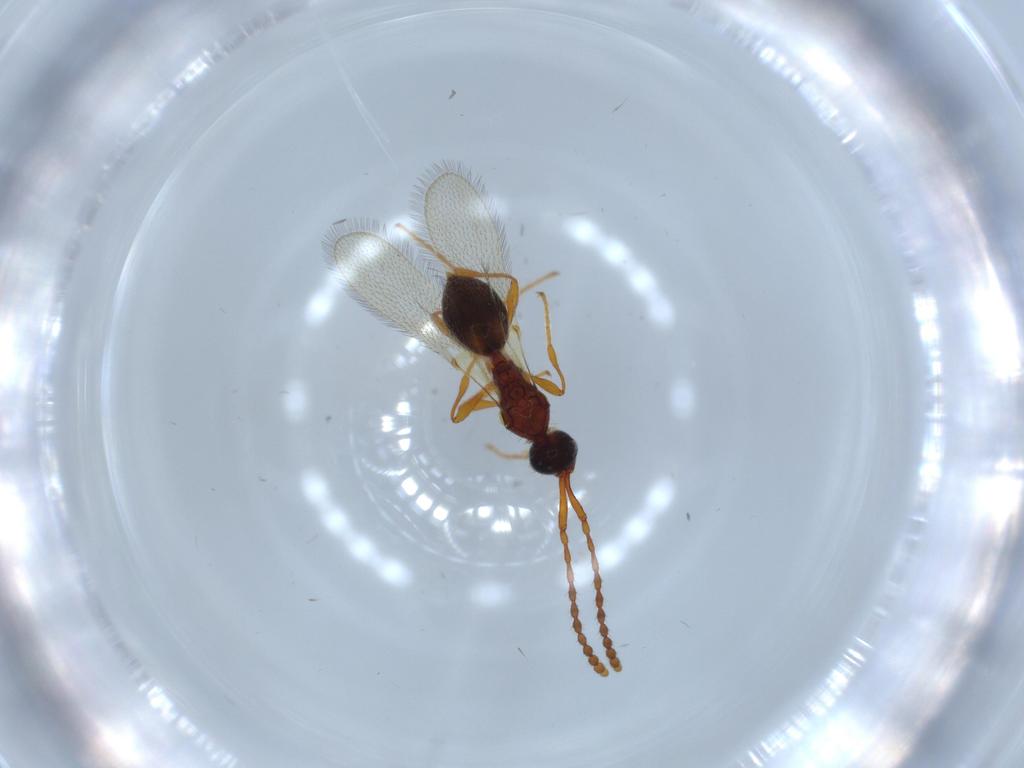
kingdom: Animalia
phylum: Arthropoda
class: Insecta
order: Hymenoptera
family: Diapriidae
